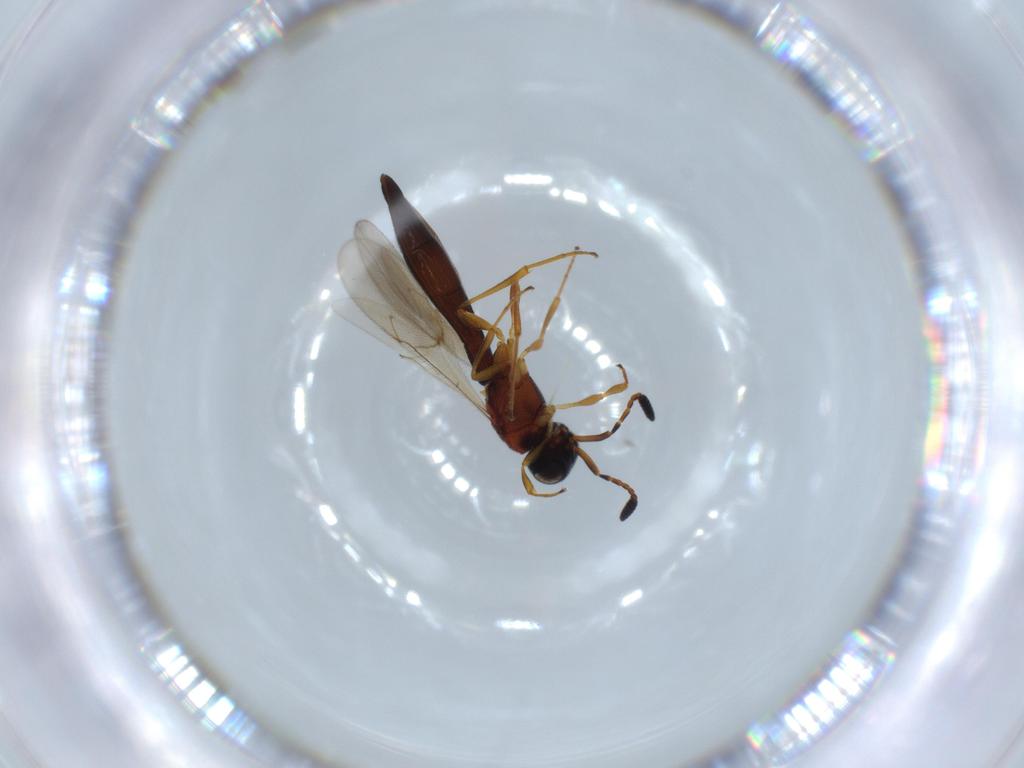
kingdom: Animalia
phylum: Arthropoda
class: Insecta
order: Hymenoptera
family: Scelionidae
